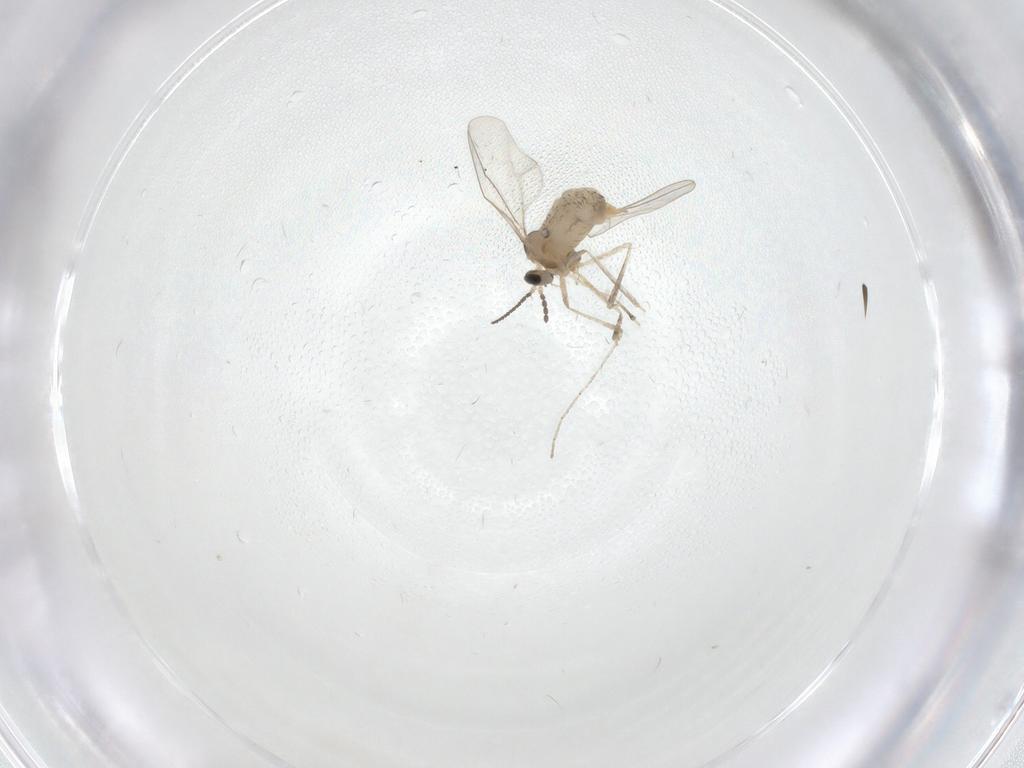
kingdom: Animalia
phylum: Arthropoda
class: Insecta
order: Diptera
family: Cecidomyiidae
